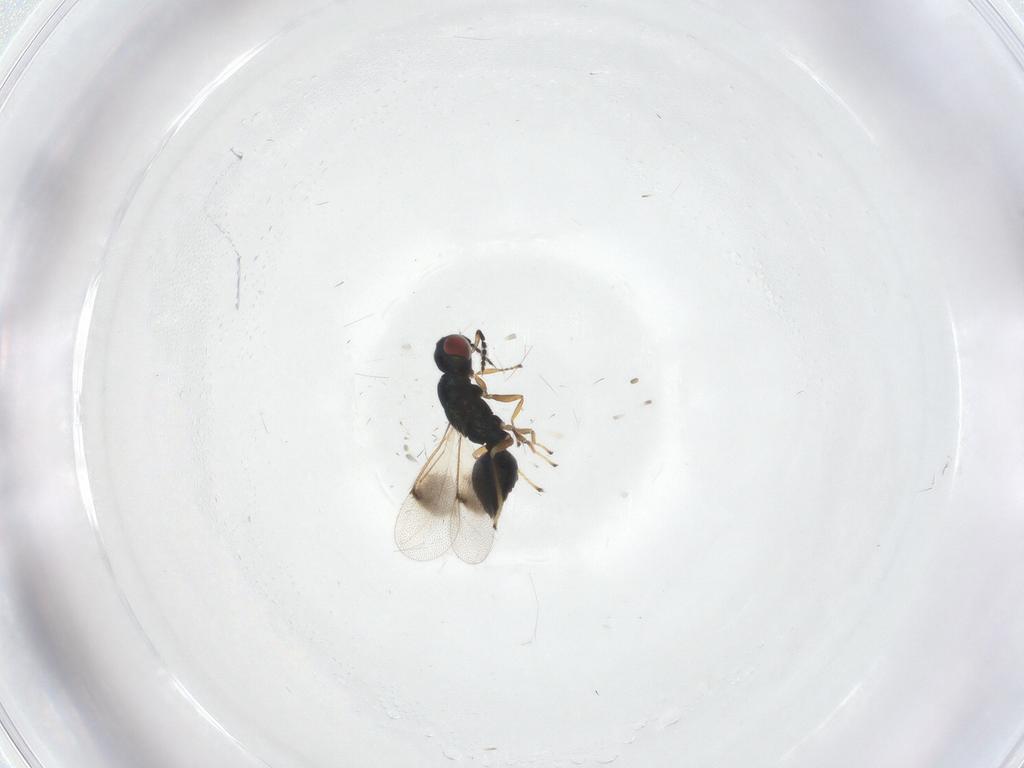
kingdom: Animalia
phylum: Arthropoda
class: Insecta
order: Hymenoptera
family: Eulophidae
